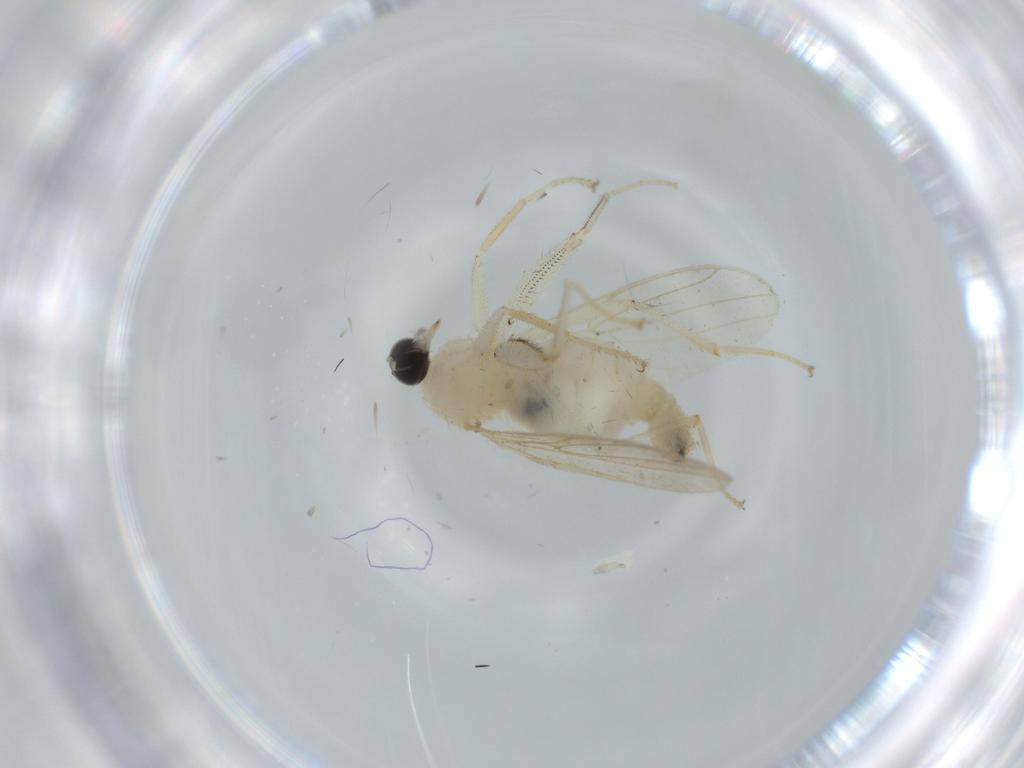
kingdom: Animalia
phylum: Arthropoda
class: Insecta
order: Diptera
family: Hybotidae
